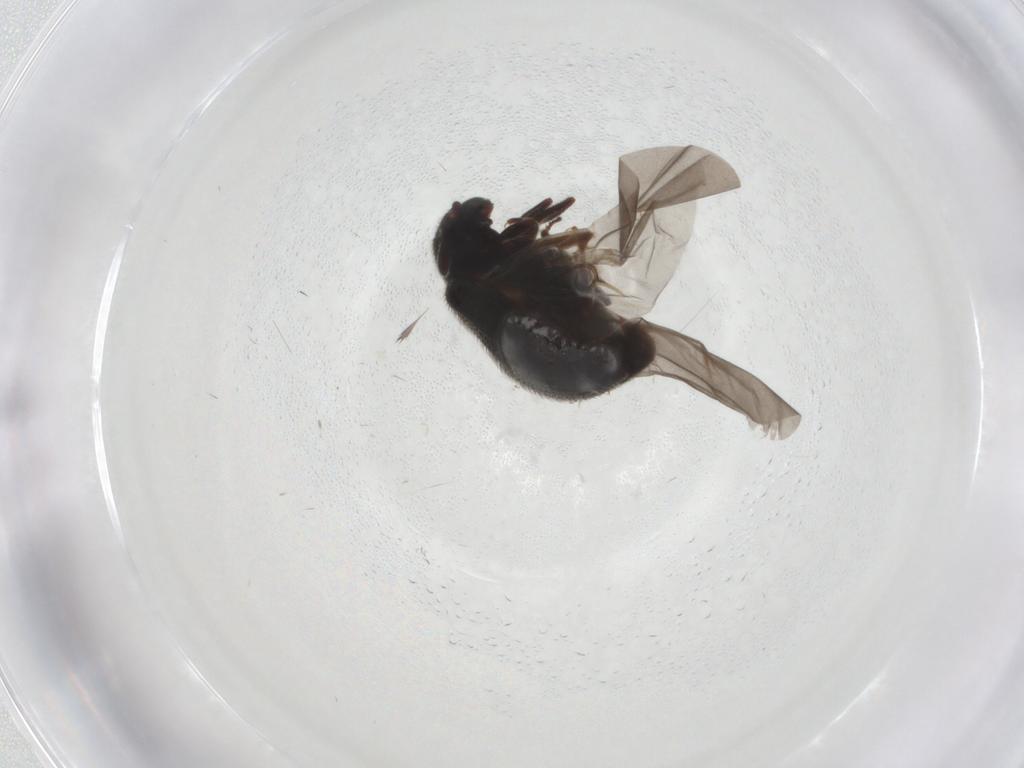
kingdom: Animalia
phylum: Arthropoda
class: Insecta
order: Coleoptera
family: Sphindidae
